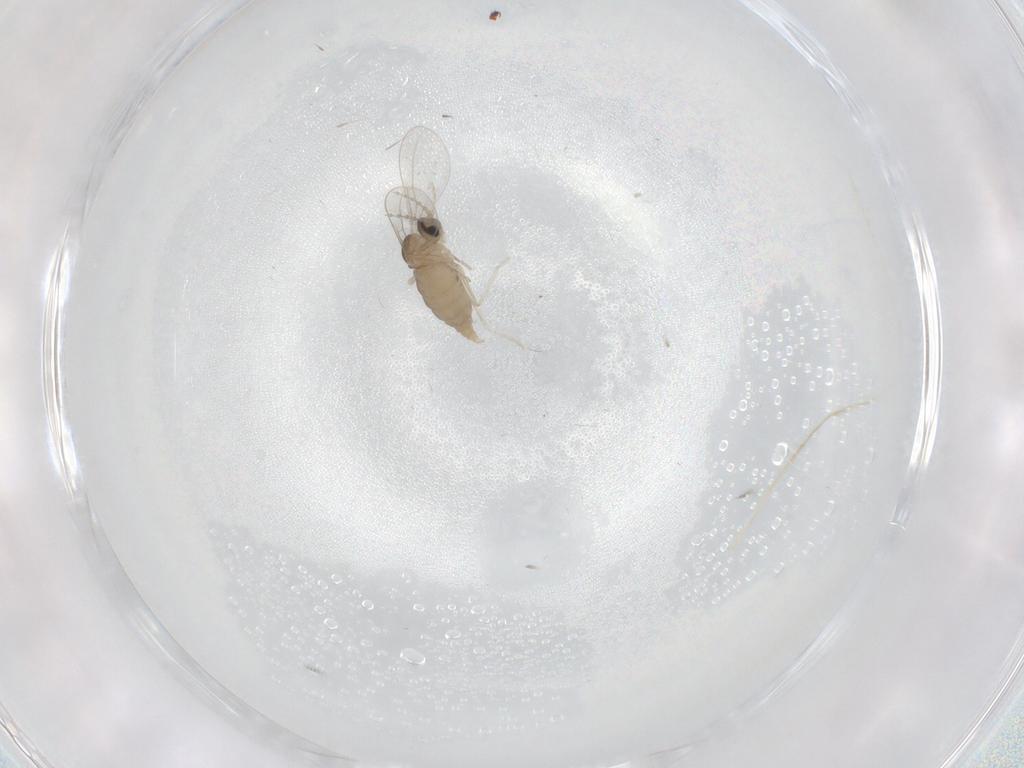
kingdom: Animalia
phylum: Arthropoda
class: Insecta
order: Diptera
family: Cecidomyiidae
